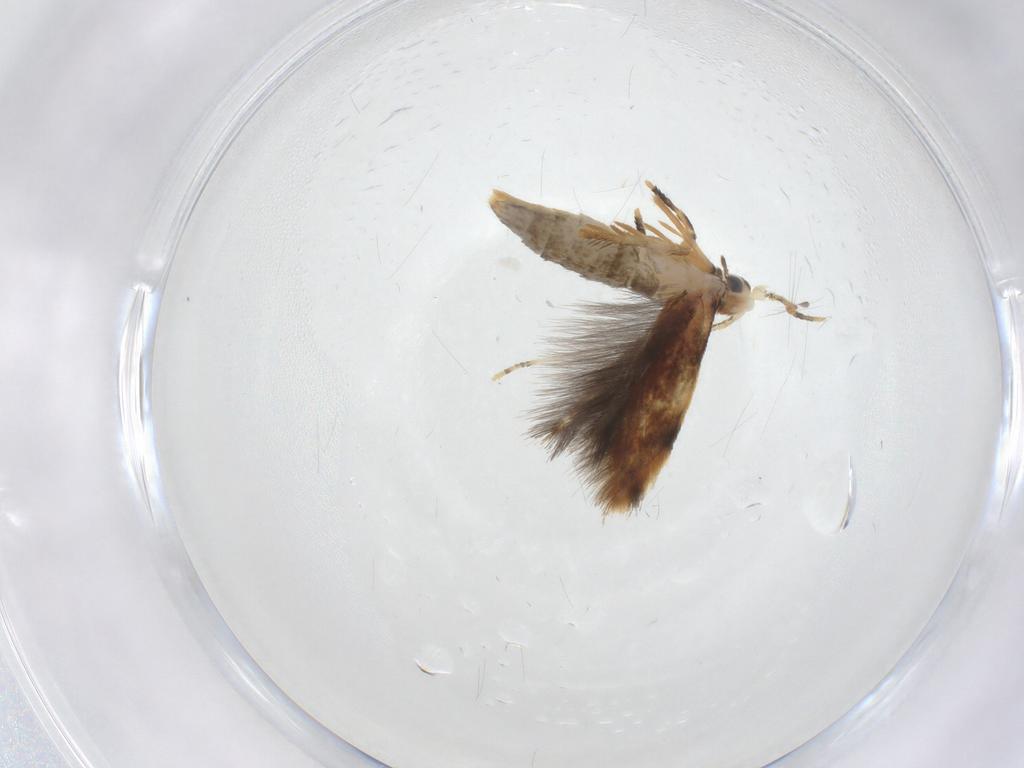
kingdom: Animalia
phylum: Arthropoda
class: Insecta
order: Lepidoptera
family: Tineidae
